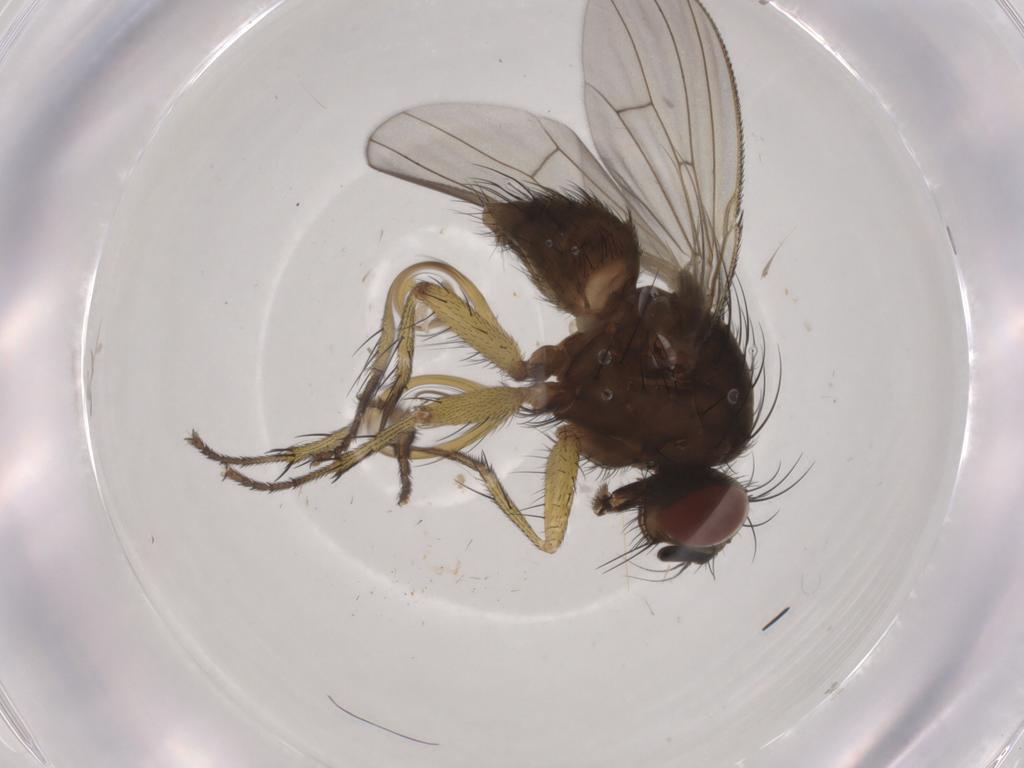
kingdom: Animalia
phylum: Arthropoda
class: Insecta
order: Diptera
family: Muscidae
